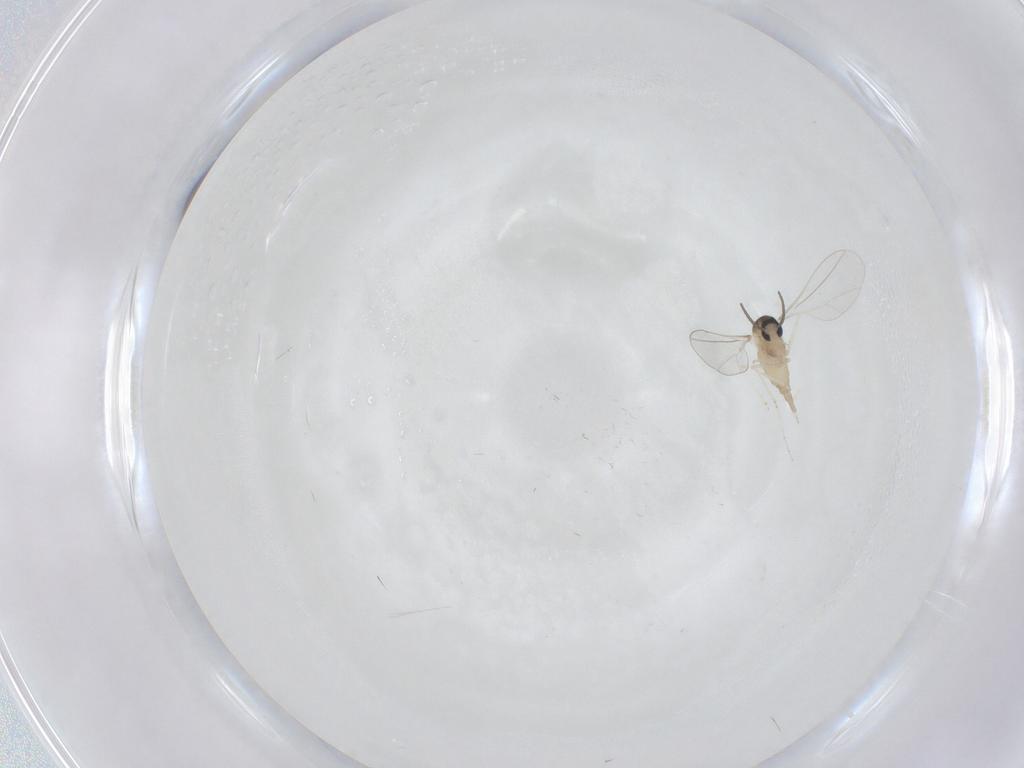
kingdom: Animalia
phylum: Arthropoda
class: Insecta
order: Diptera
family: Cecidomyiidae
